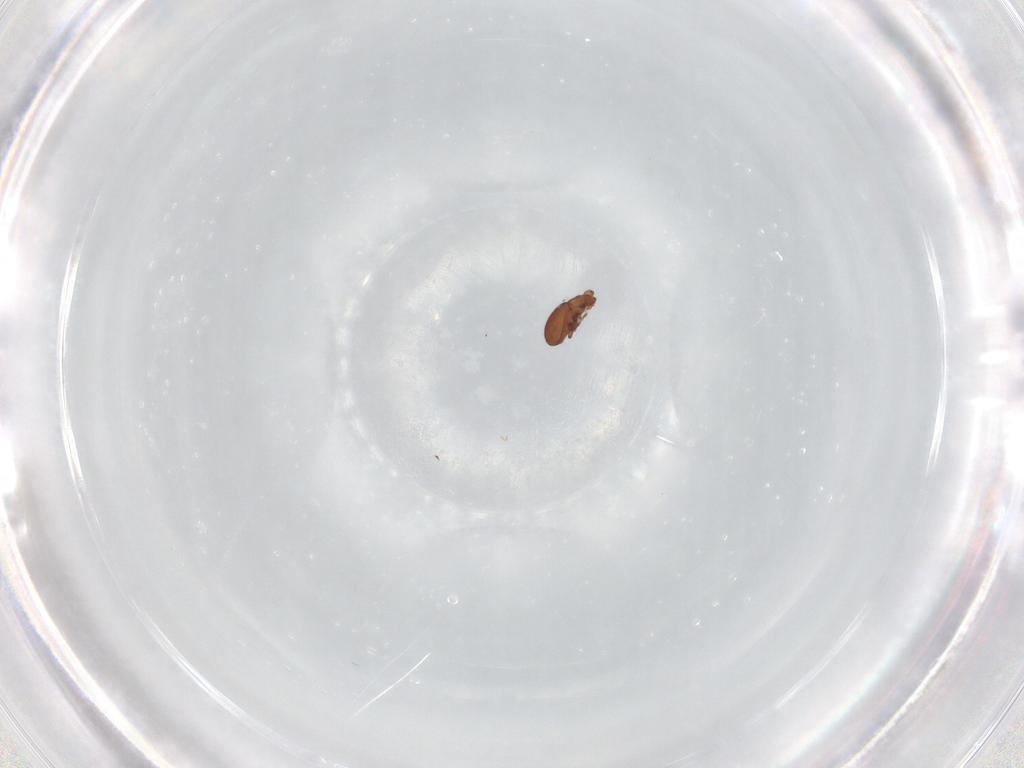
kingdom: Animalia
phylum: Arthropoda
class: Arachnida
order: Sarcoptiformes
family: Eremaeidae
